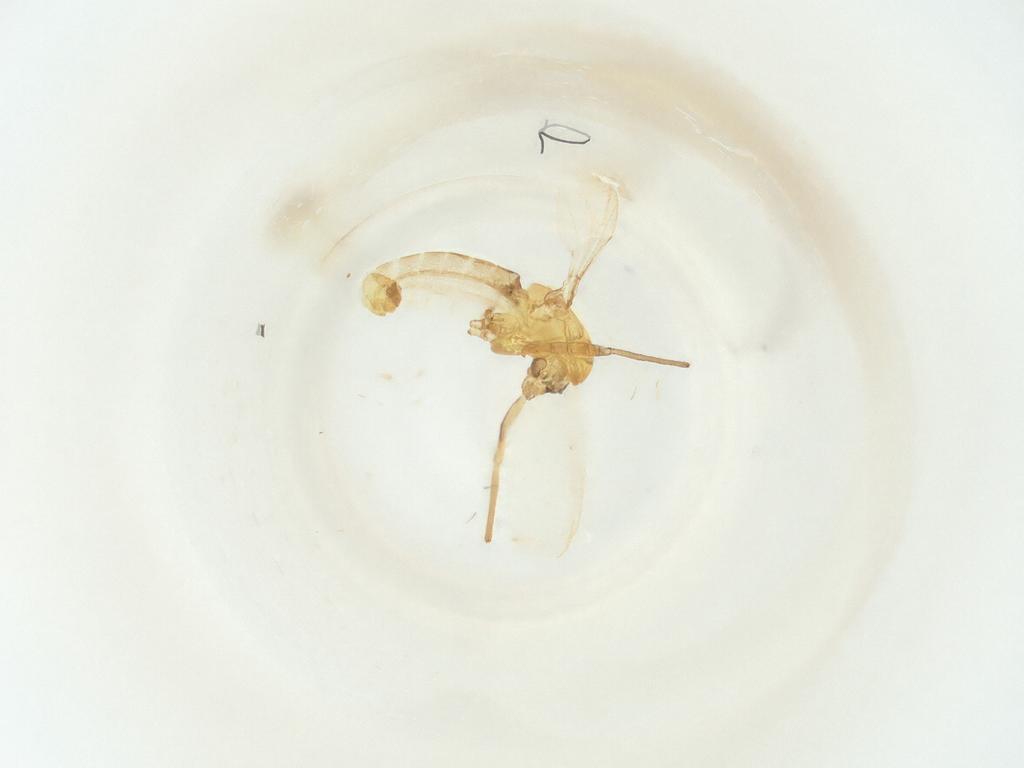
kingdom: Animalia
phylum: Arthropoda
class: Insecta
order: Diptera
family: Chironomidae
